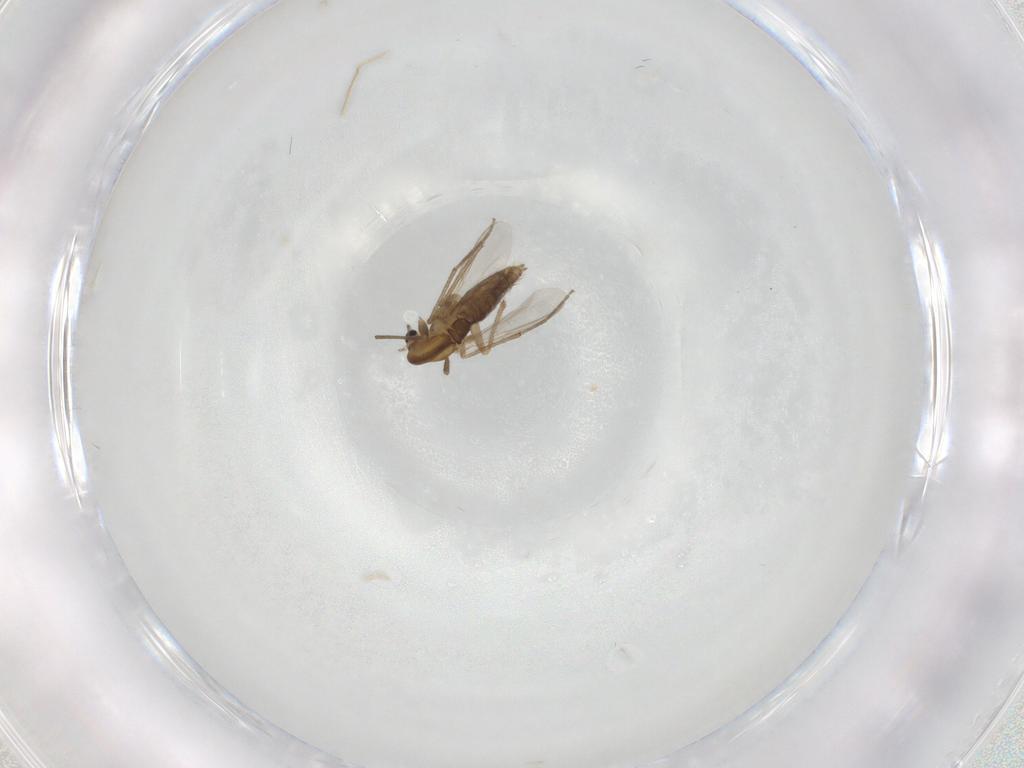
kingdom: Animalia
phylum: Arthropoda
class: Insecta
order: Diptera
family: Chironomidae
